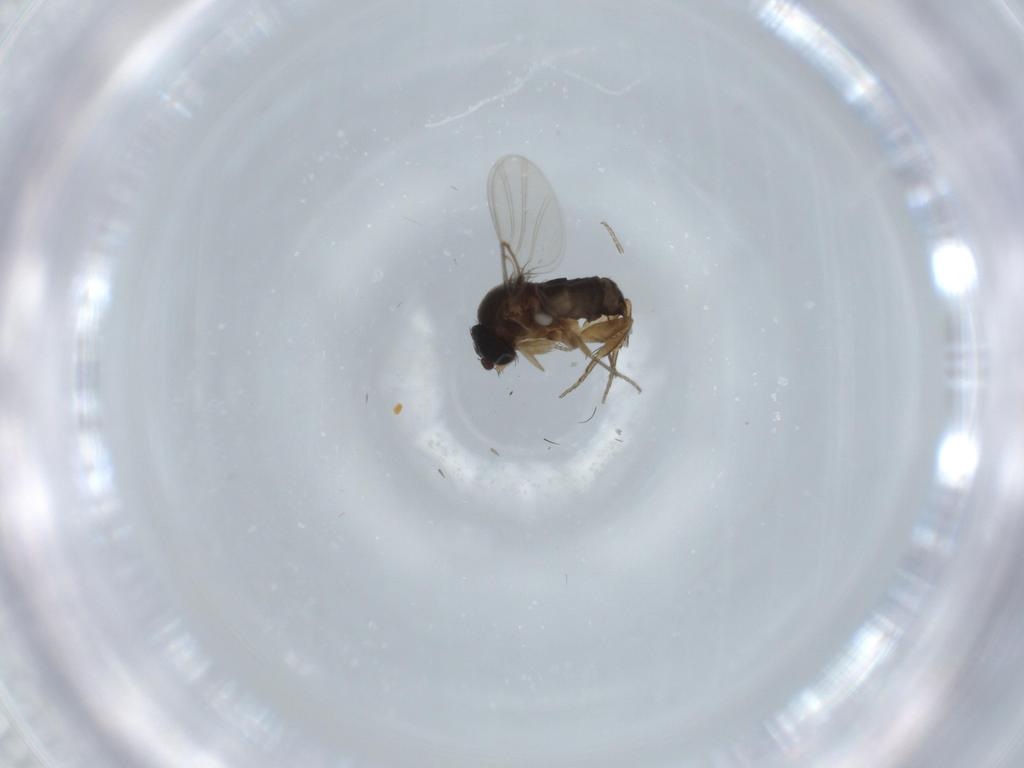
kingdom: Animalia
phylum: Arthropoda
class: Insecta
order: Diptera
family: Phoridae
